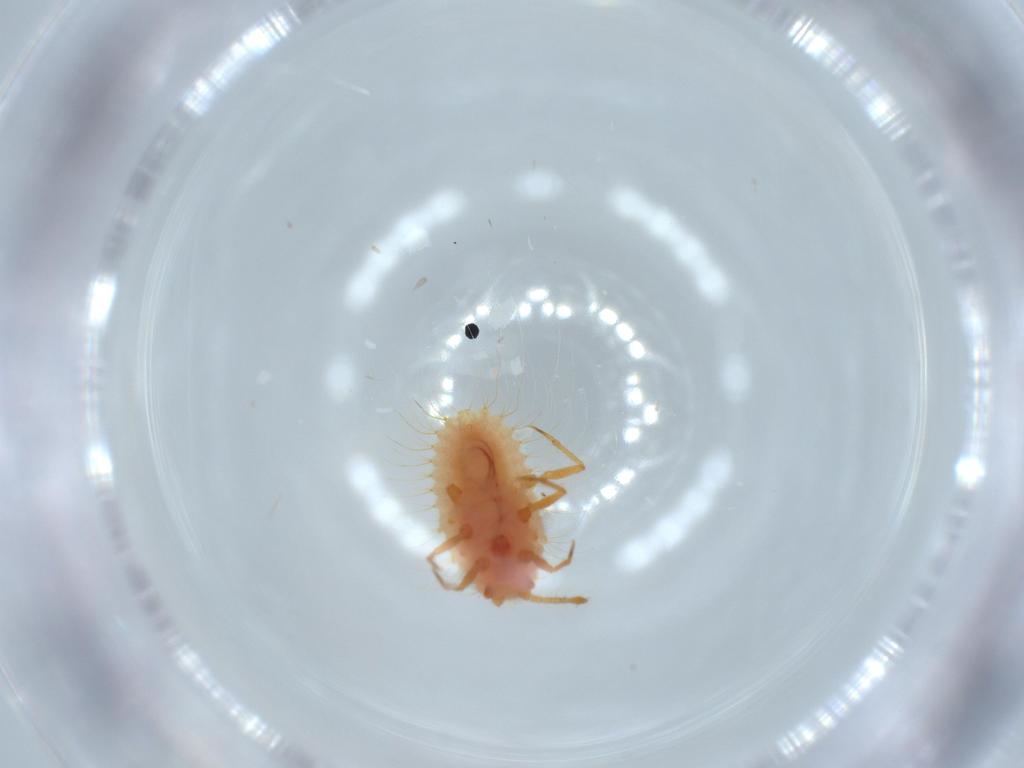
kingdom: Animalia
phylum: Arthropoda
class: Insecta
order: Hemiptera
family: Coccoidea_incertae_sedis
